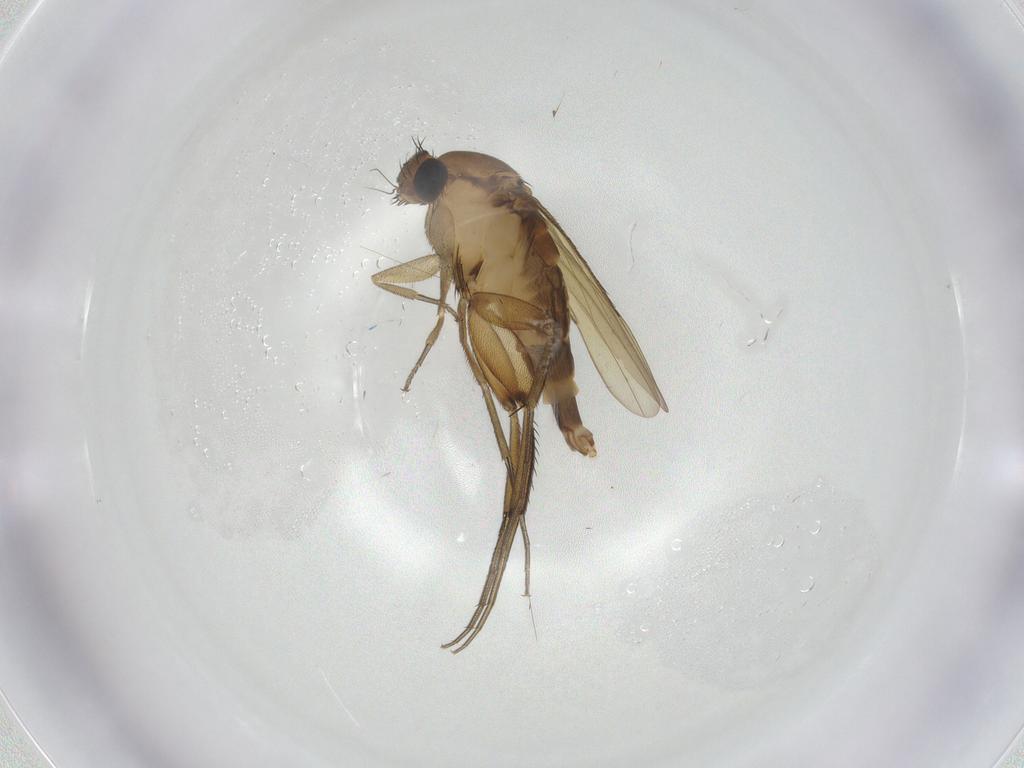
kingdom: Animalia
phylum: Arthropoda
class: Insecta
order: Diptera
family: Phoridae
